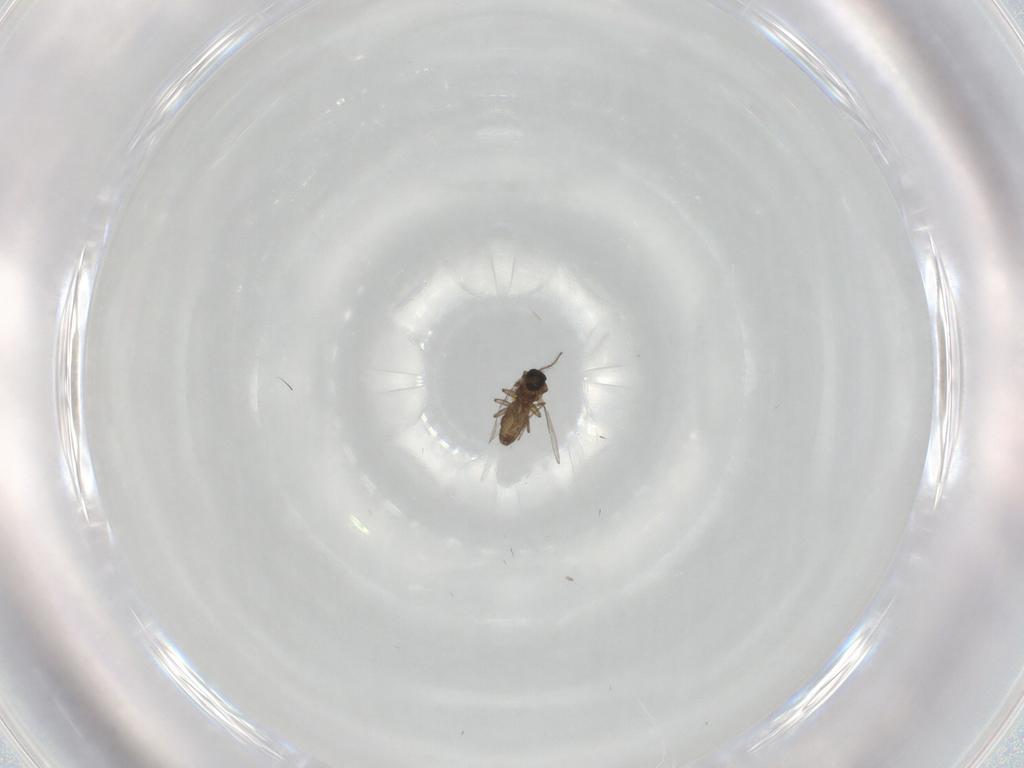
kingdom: Animalia
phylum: Arthropoda
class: Insecta
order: Diptera
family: Ceratopogonidae
